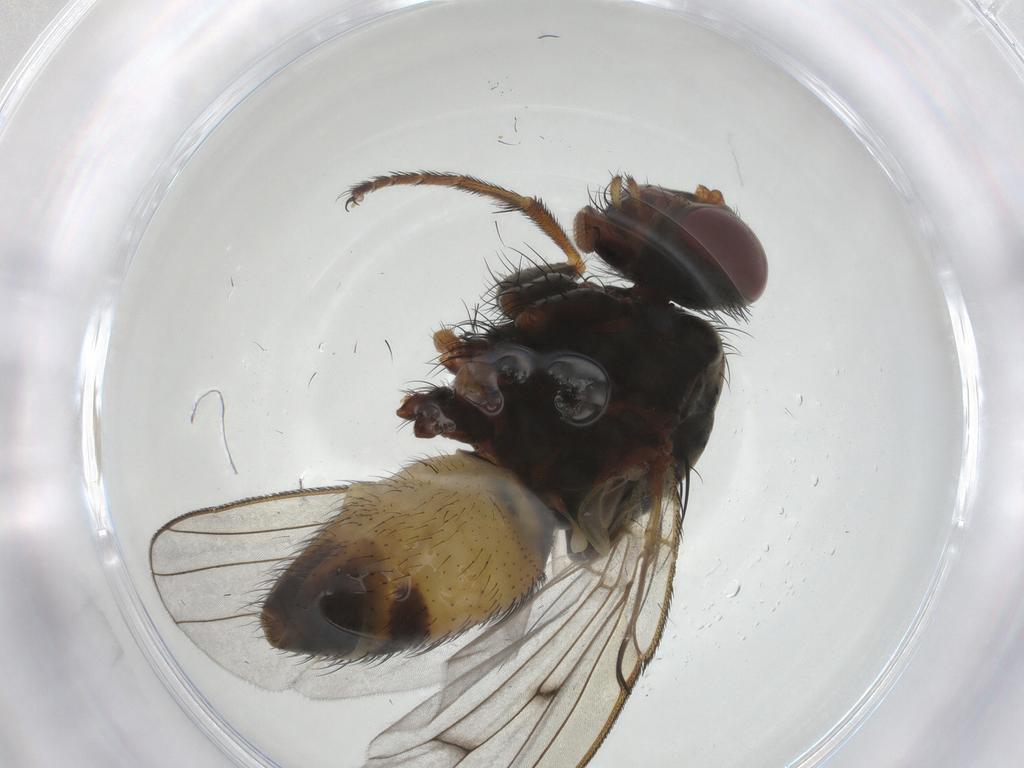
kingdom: Animalia
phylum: Arthropoda
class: Insecta
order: Diptera
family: Muscidae
